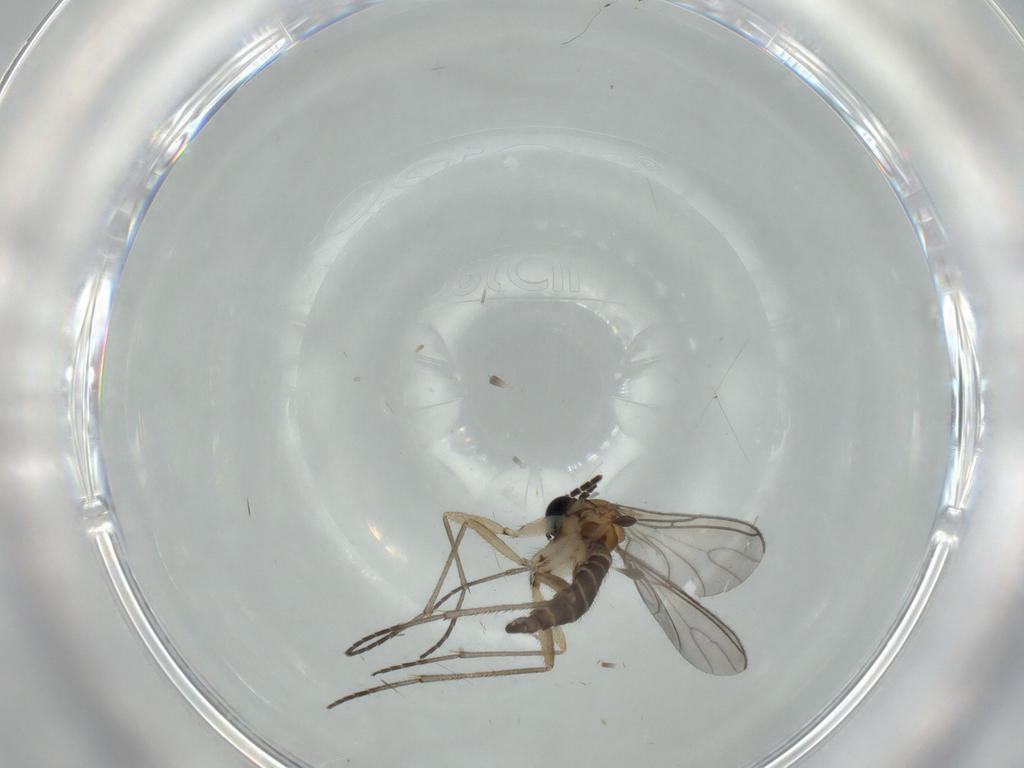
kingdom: Animalia
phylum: Arthropoda
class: Insecta
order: Diptera
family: Sciaridae
